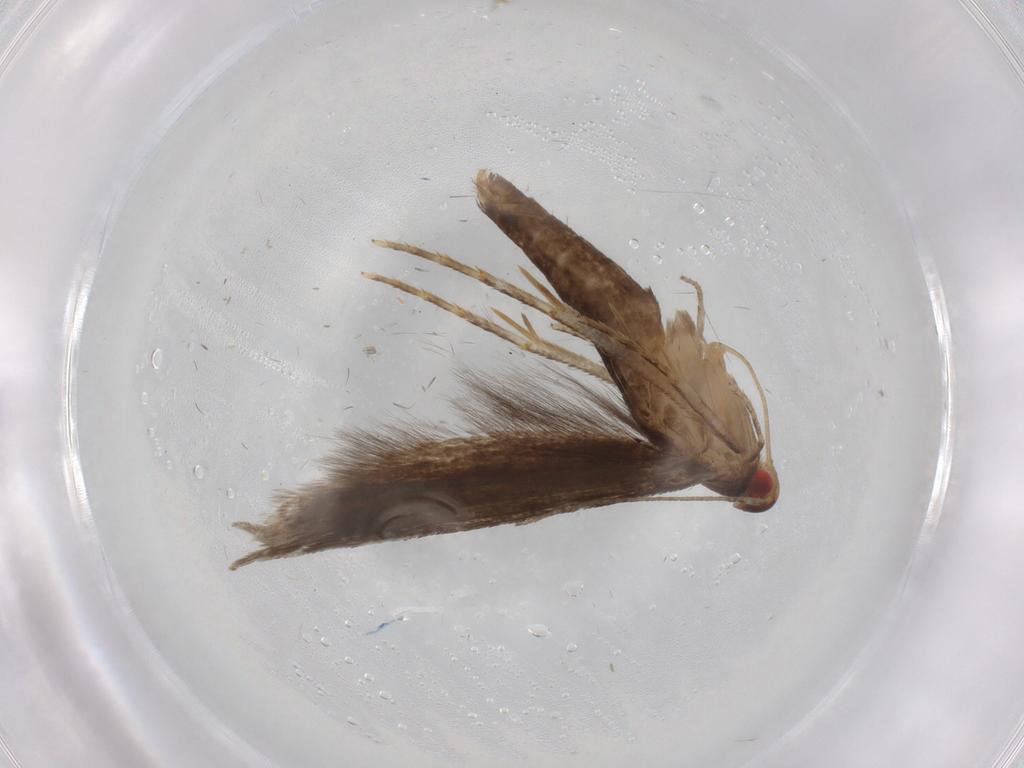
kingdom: Animalia
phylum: Arthropoda
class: Insecta
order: Lepidoptera
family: Gelechiidae
